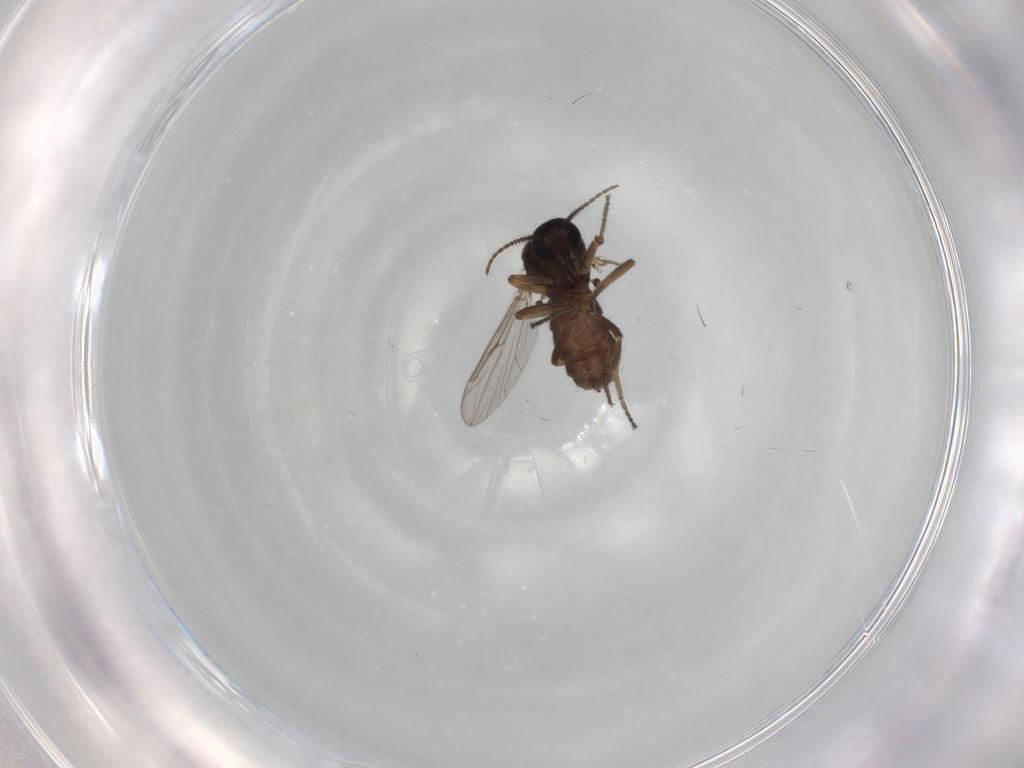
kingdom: Animalia
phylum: Arthropoda
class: Insecta
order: Diptera
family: Ceratopogonidae
